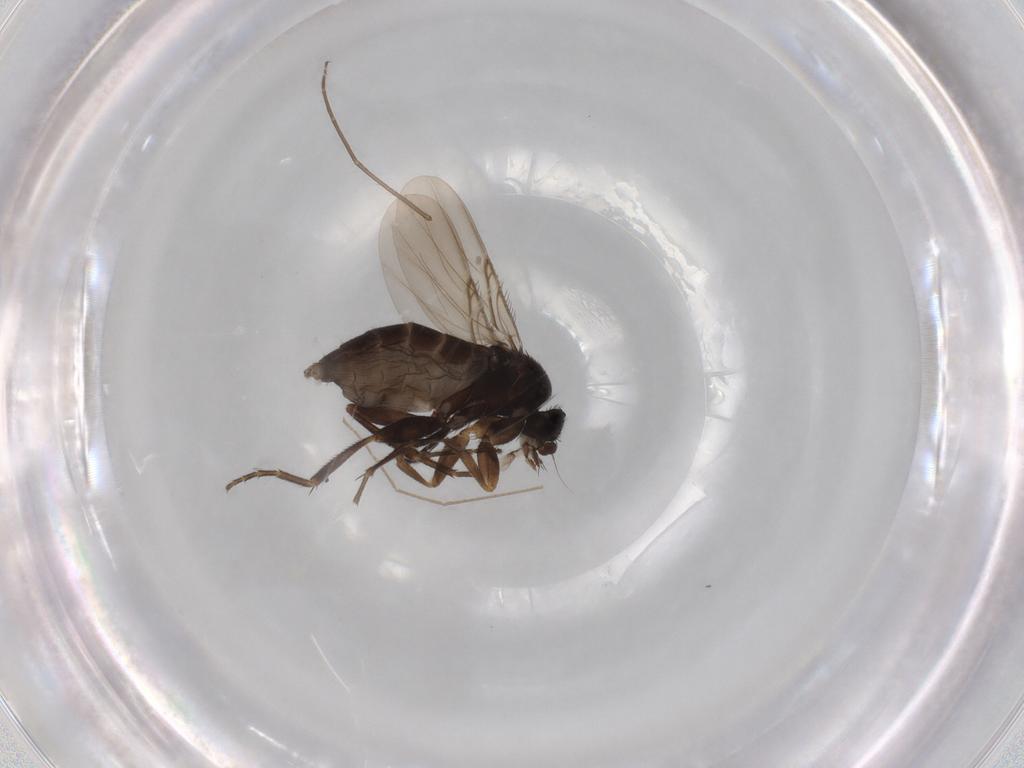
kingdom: Animalia
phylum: Arthropoda
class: Insecta
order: Diptera
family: Phoridae
